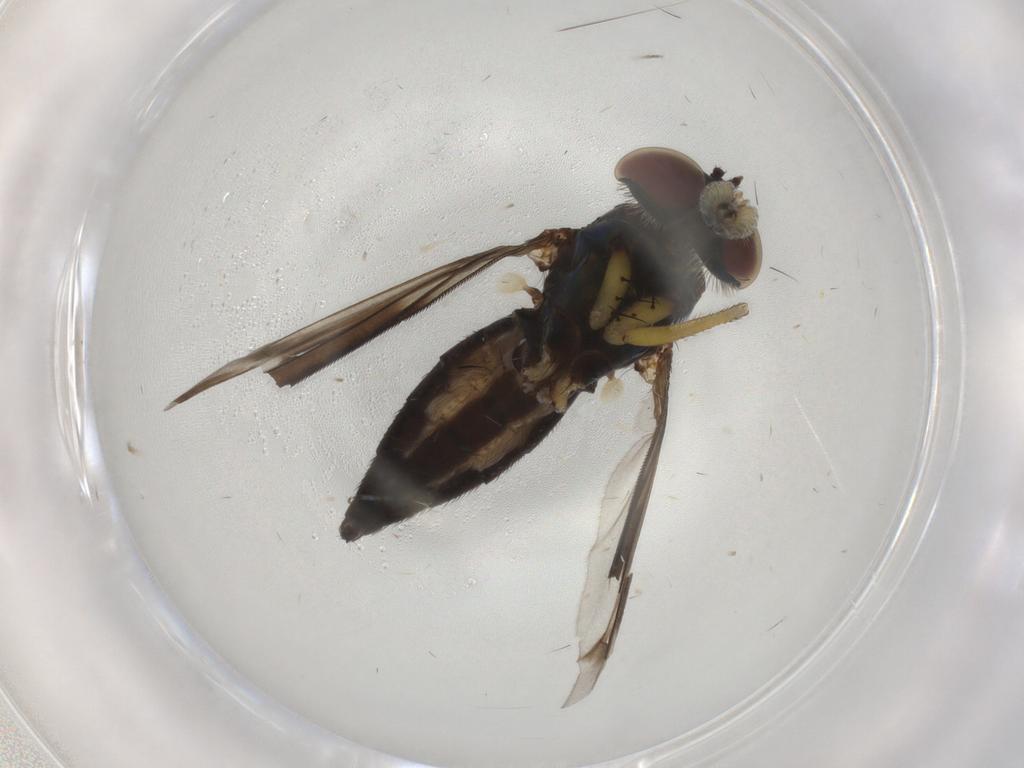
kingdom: Animalia
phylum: Arthropoda
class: Insecta
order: Diptera
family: Dolichopodidae
